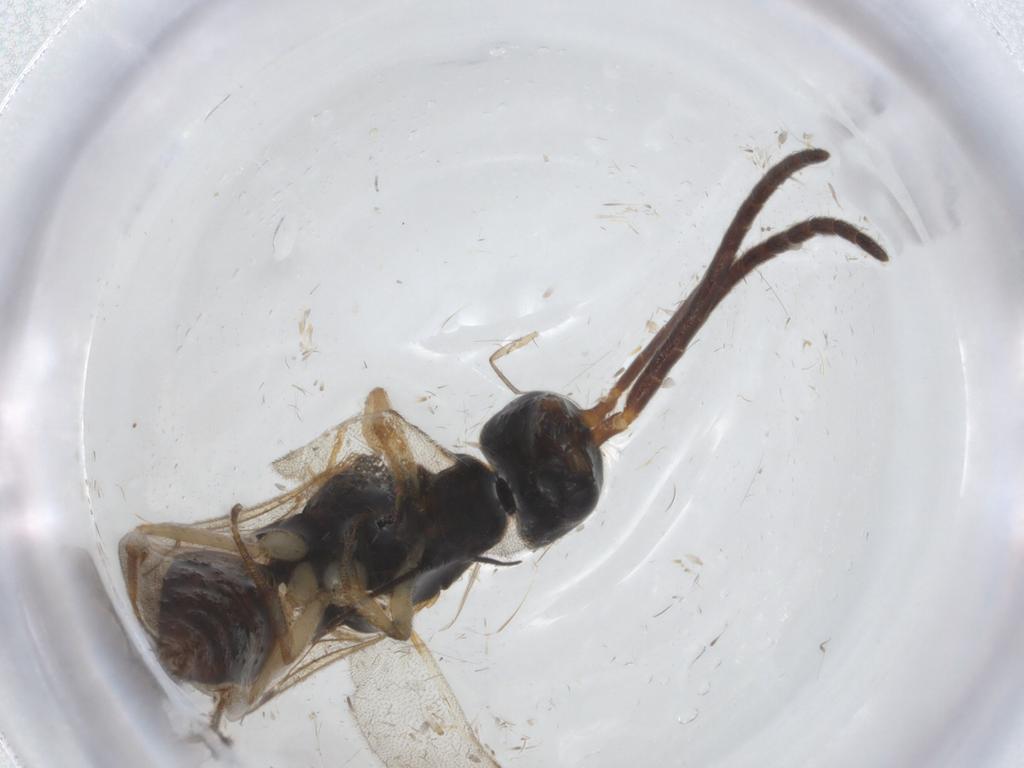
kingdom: Animalia
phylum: Arthropoda
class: Insecta
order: Hymenoptera
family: Bethylidae
